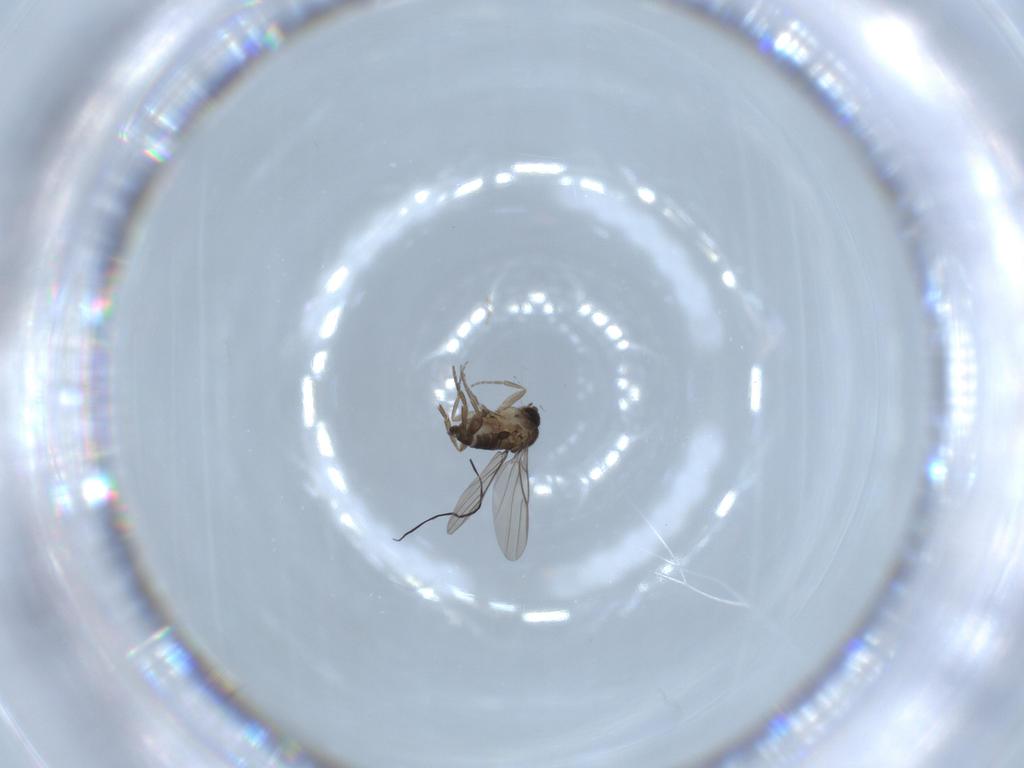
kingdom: Animalia
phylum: Arthropoda
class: Insecta
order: Diptera
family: Phoridae
